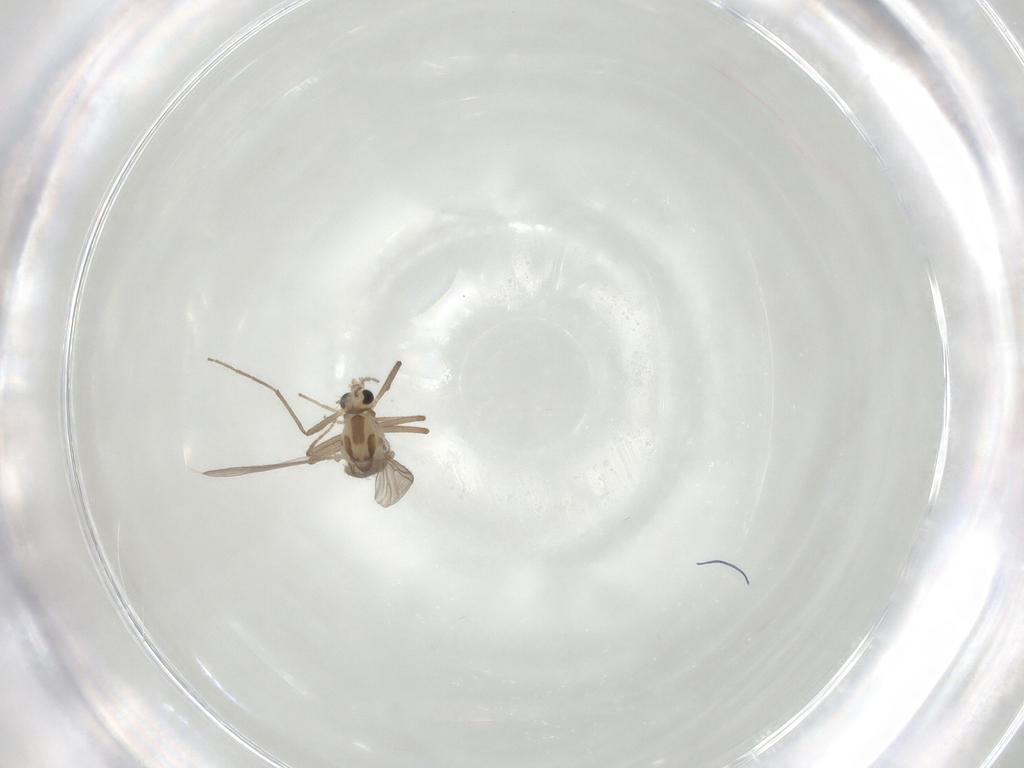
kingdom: Animalia
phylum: Arthropoda
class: Insecta
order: Diptera
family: Chironomidae
